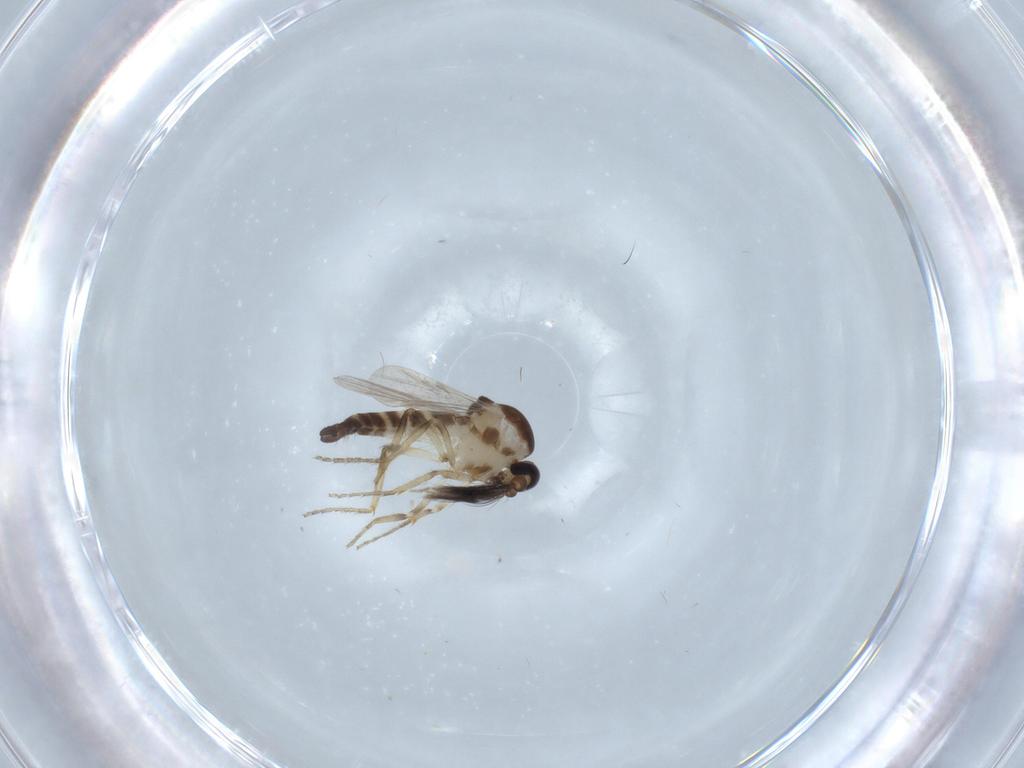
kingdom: Animalia
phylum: Arthropoda
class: Insecta
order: Diptera
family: Ceratopogonidae
